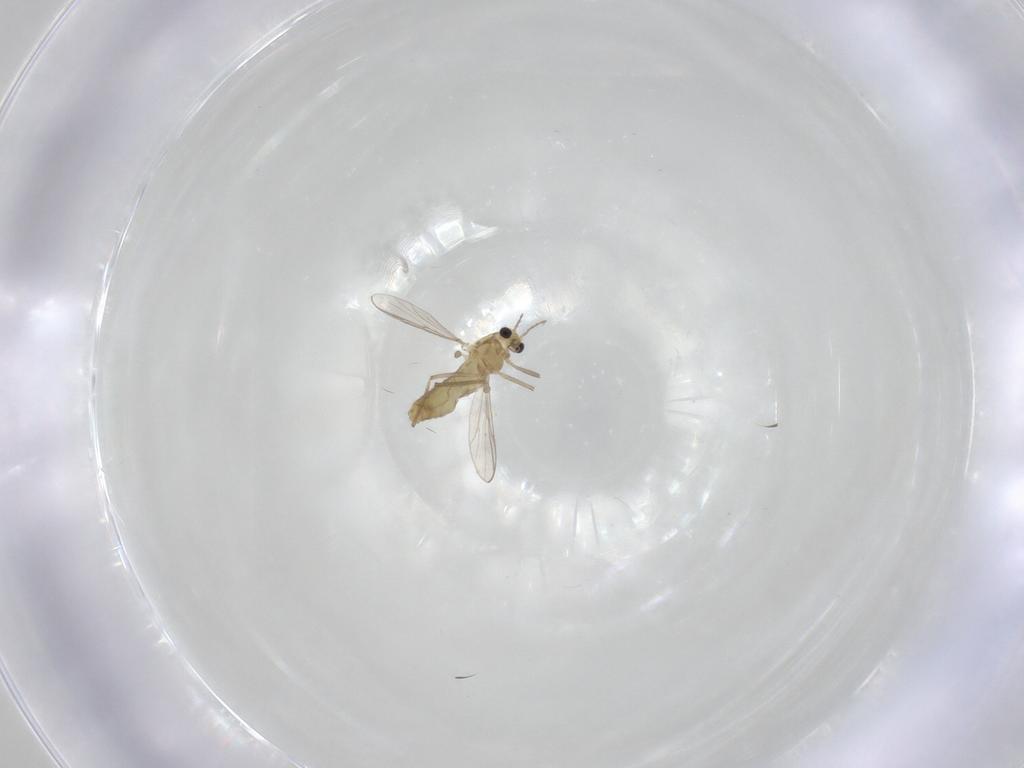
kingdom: Animalia
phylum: Arthropoda
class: Insecta
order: Diptera
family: Chironomidae
